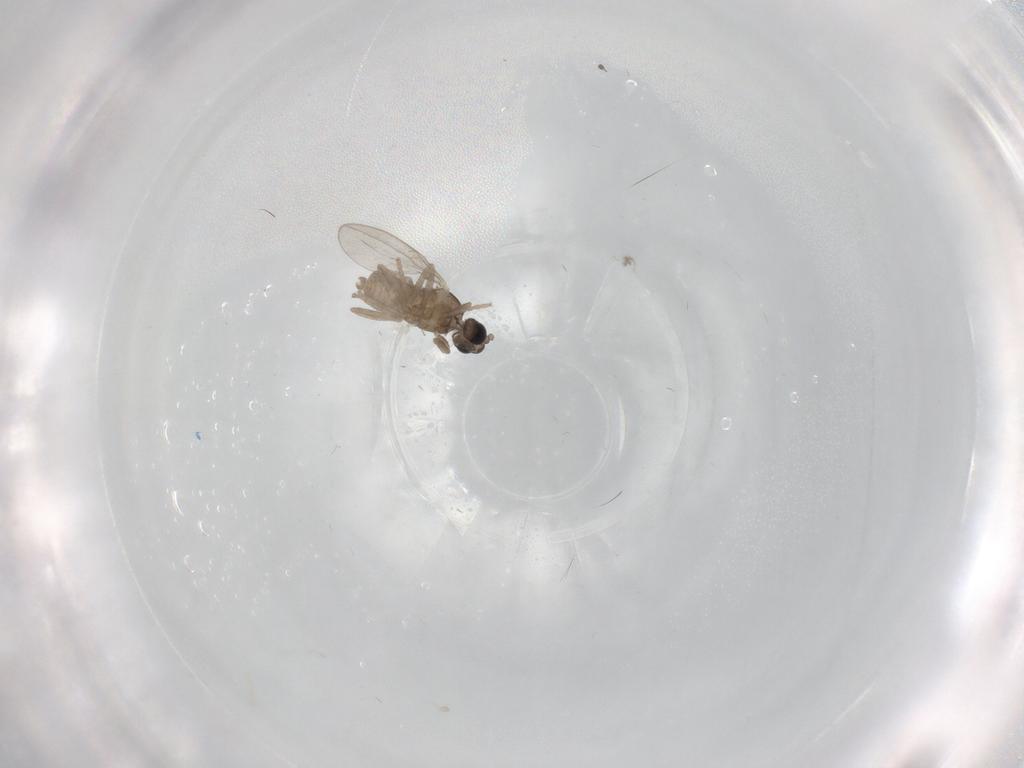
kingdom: Animalia
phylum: Arthropoda
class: Insecta
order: Diptera
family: Cecidomyiidae
